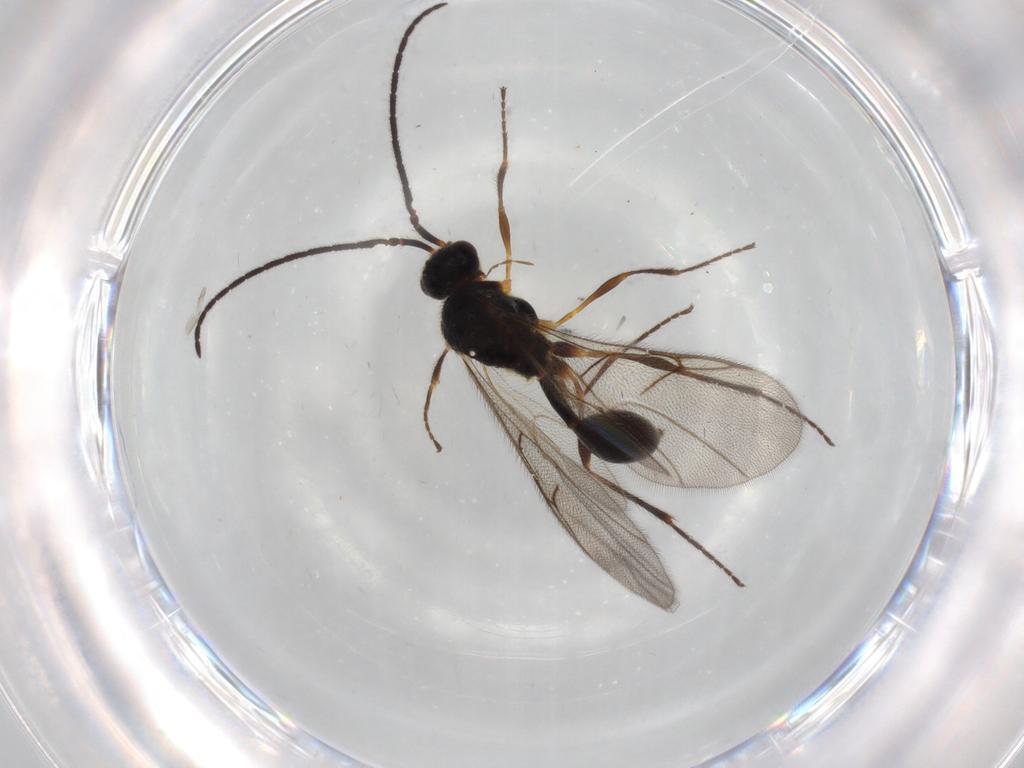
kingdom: Animalia
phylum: Arthropoda
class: Insecta
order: Hymenoptera
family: Diapriidae
